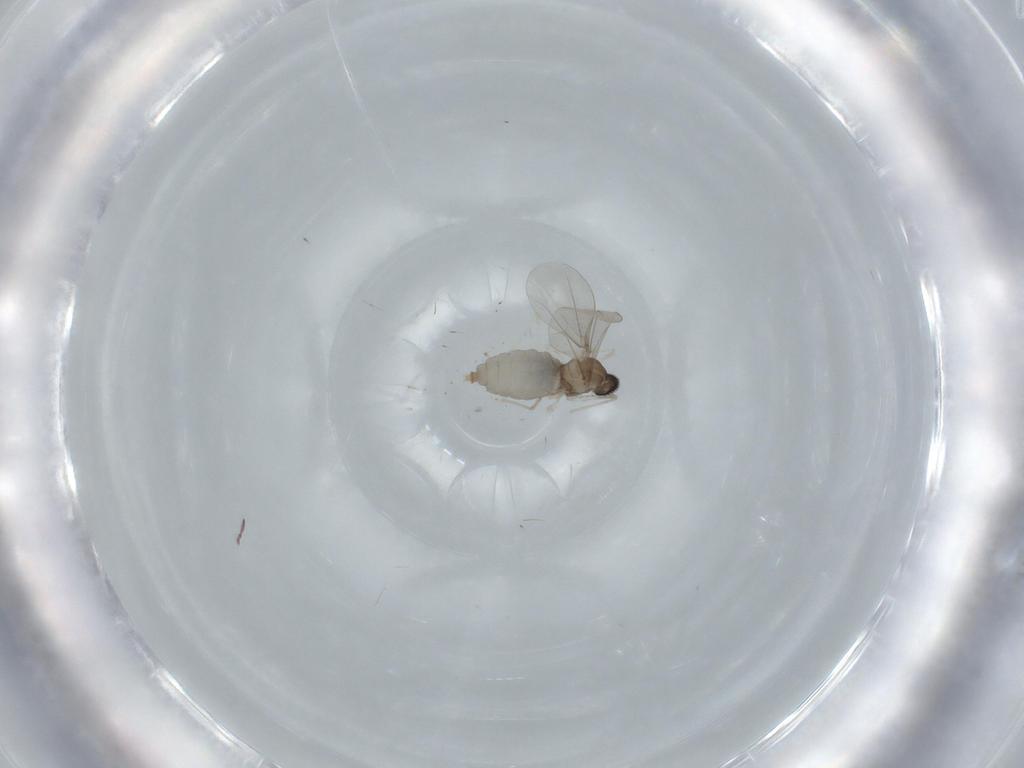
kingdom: Animalia
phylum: Arthropoda
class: Insecta
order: Diptera
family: Cecidomyiidae
